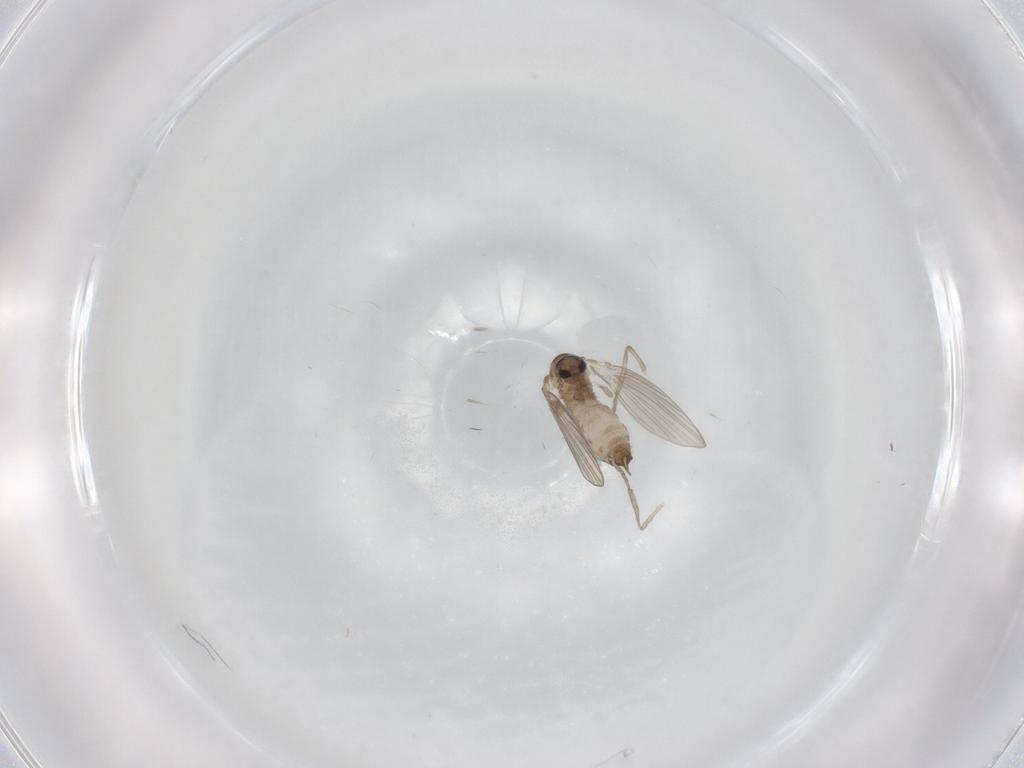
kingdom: Animalia
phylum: Arthropoda
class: Insecta
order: Diptera
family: Psychodidae
